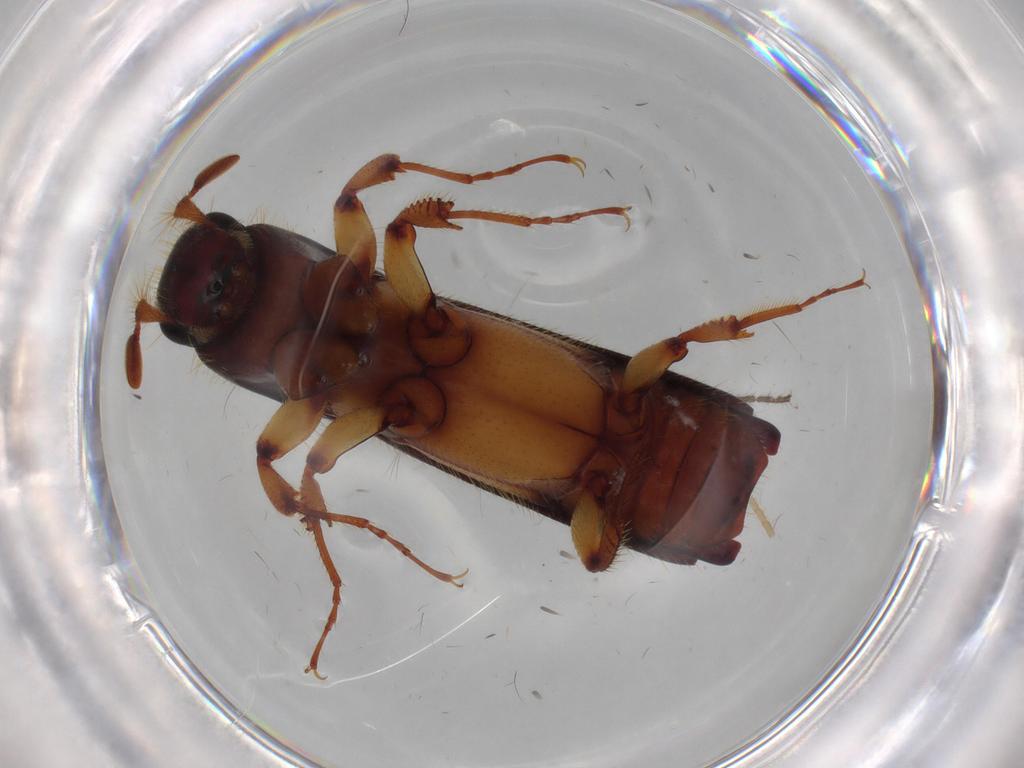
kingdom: Animalia
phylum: Arthropoda
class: Insecta
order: Coleoptera
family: Curculionidae
